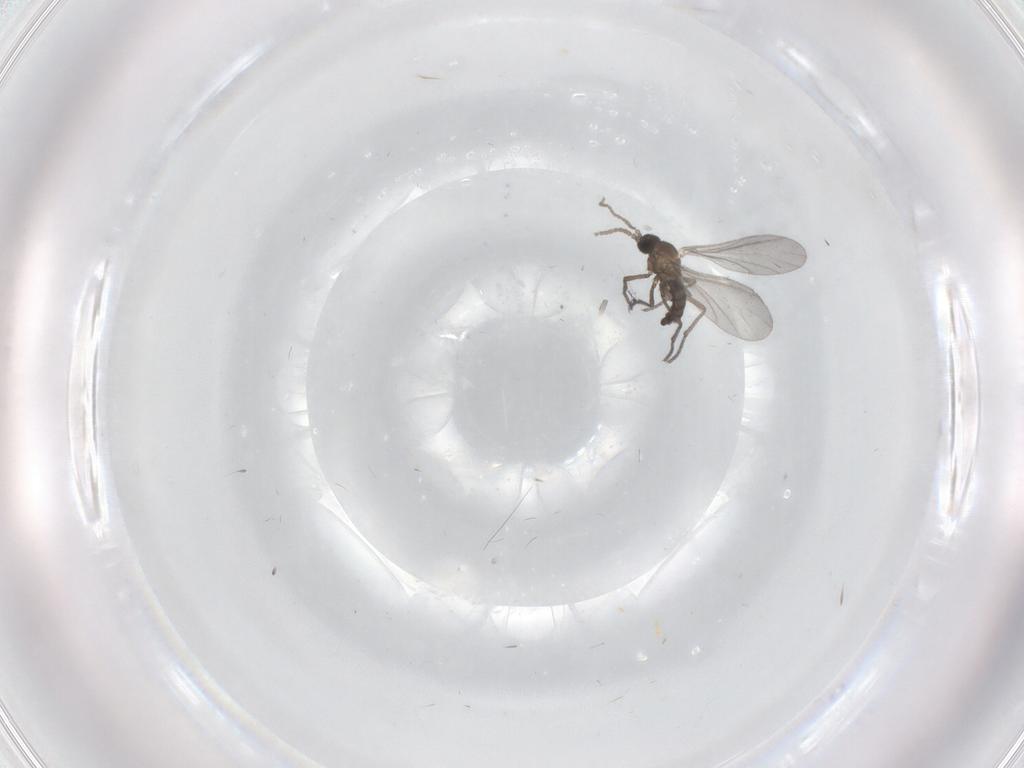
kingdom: Animalia
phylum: Arthropoda
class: Insecta
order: Diptera
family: Sciaridae
